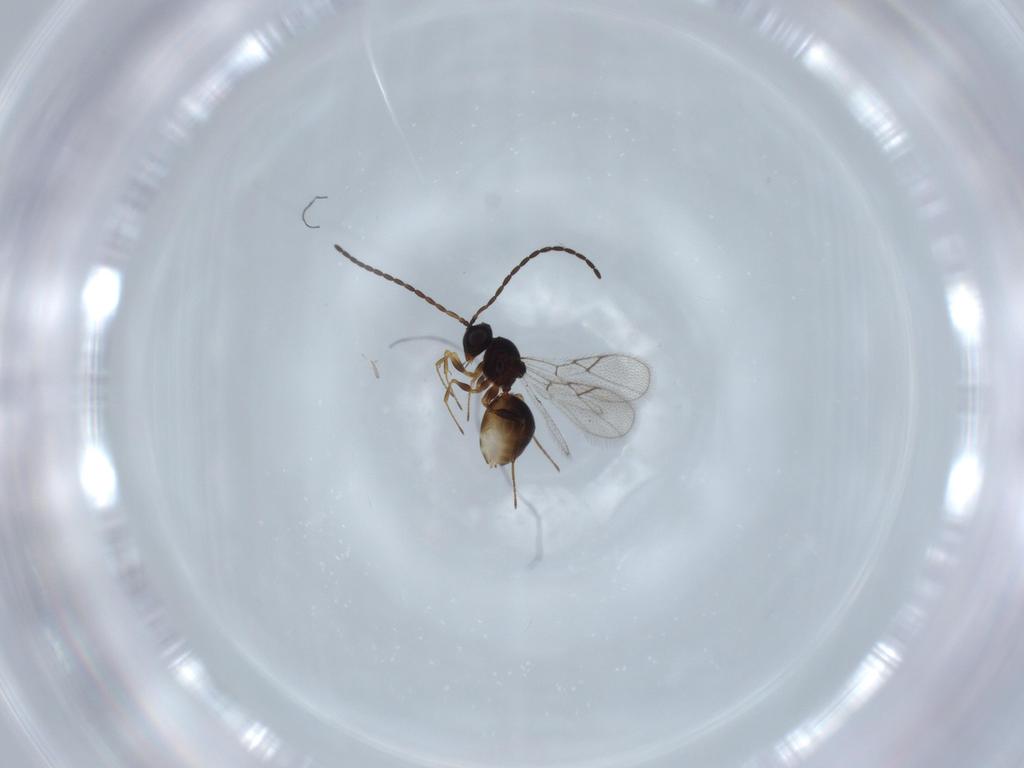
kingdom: Animalia
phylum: Arthropoda
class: Insecta
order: Hymenoptera
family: Figitidae
